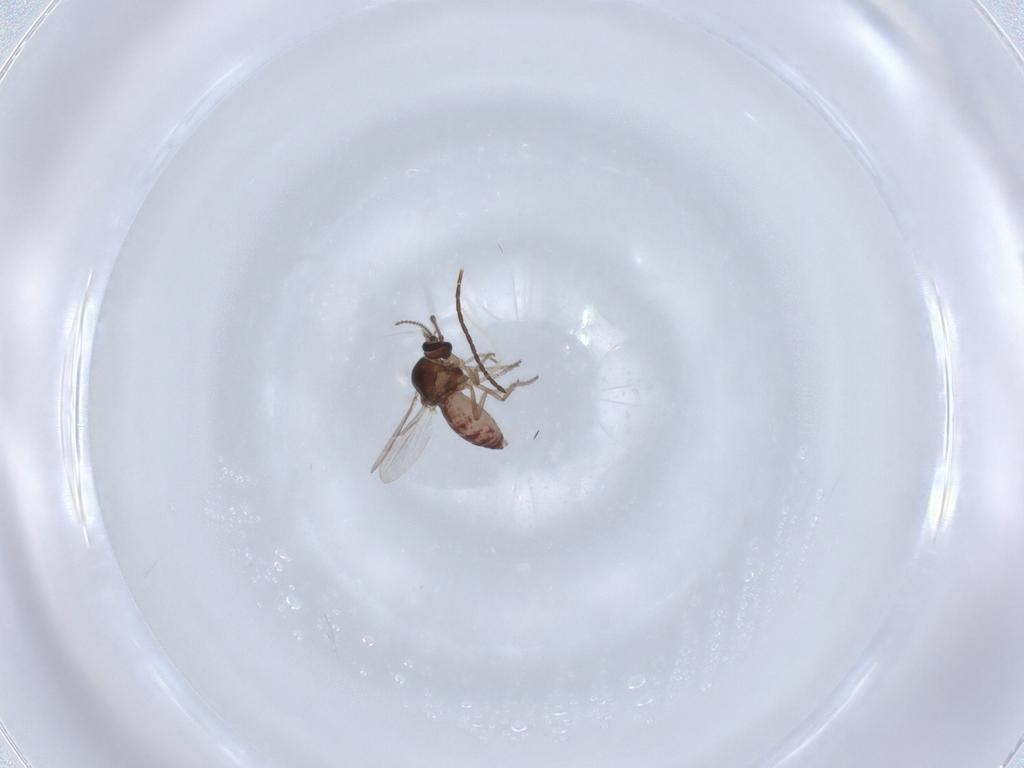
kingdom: Animalia
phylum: Arthropoda
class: Insecta
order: Diptera
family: Ceratopogonidae
